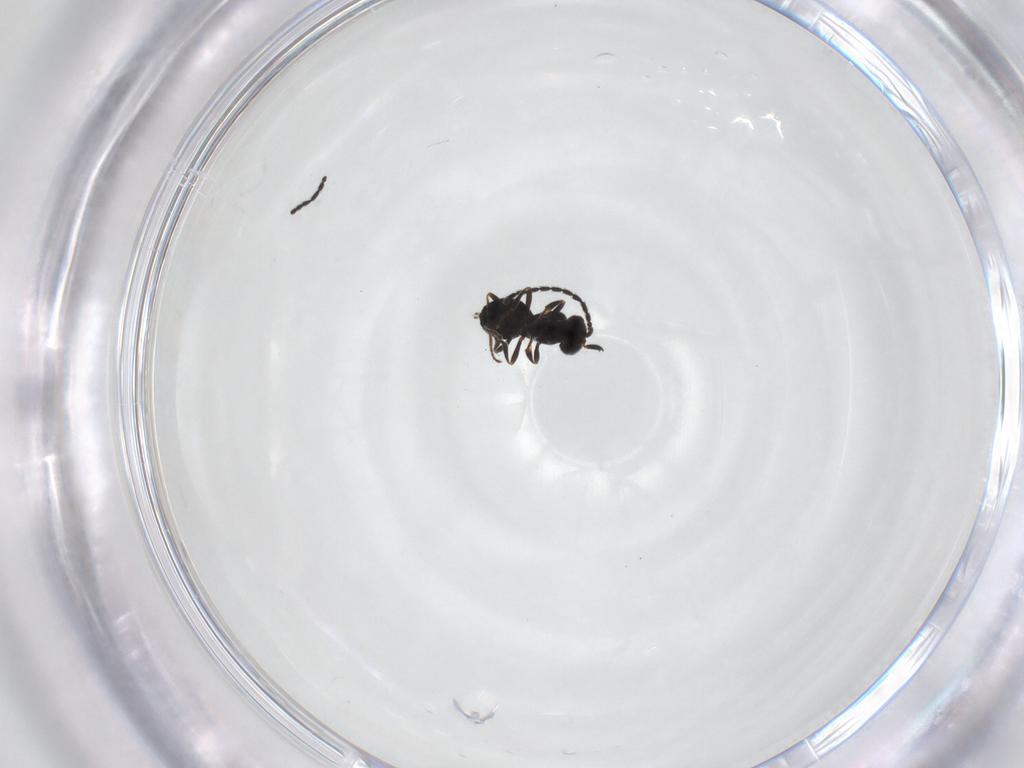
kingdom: Animalia
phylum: Arthropoda
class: Insecta
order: Hymenoptera
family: Scelionidae
